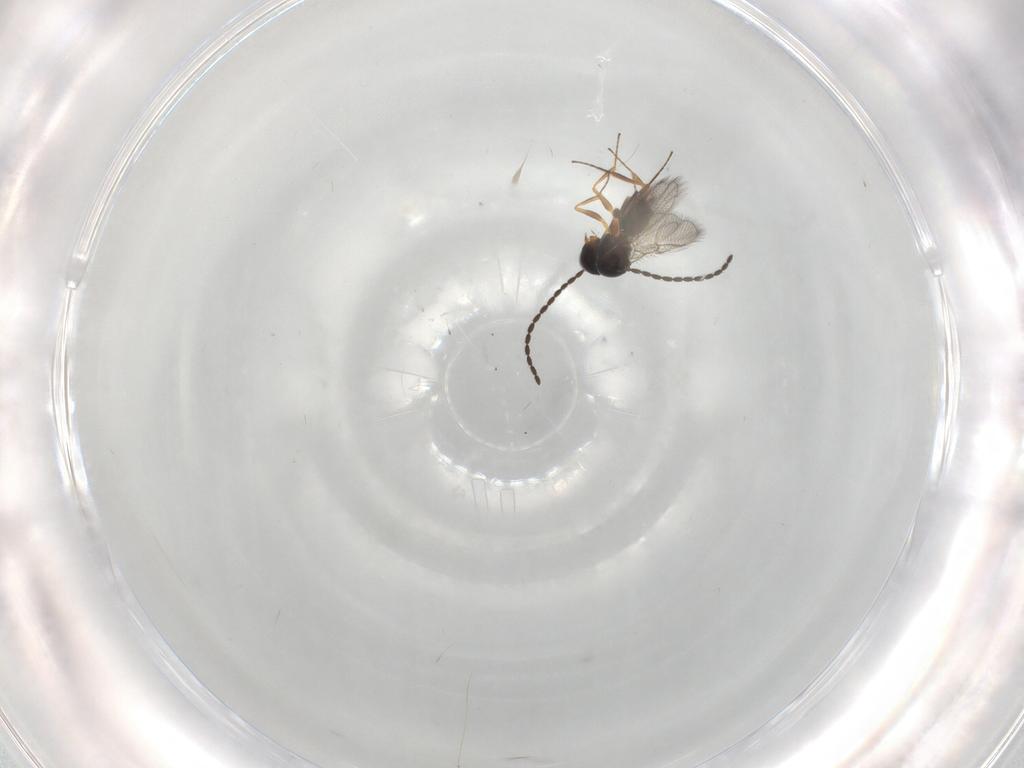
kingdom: Animalia
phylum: Arthropoda
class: Insecta
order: Hymenoptera
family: Figitidae
